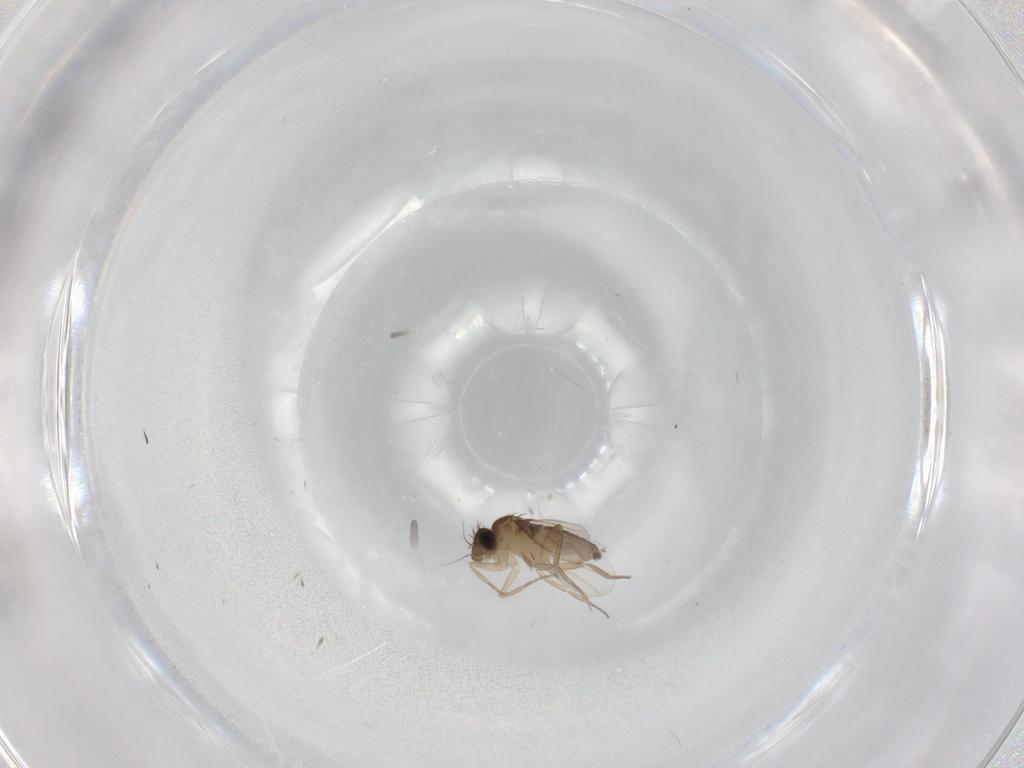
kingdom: Animalia
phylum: Arthropoda
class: Insecta
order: Diptera
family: Phoridae
